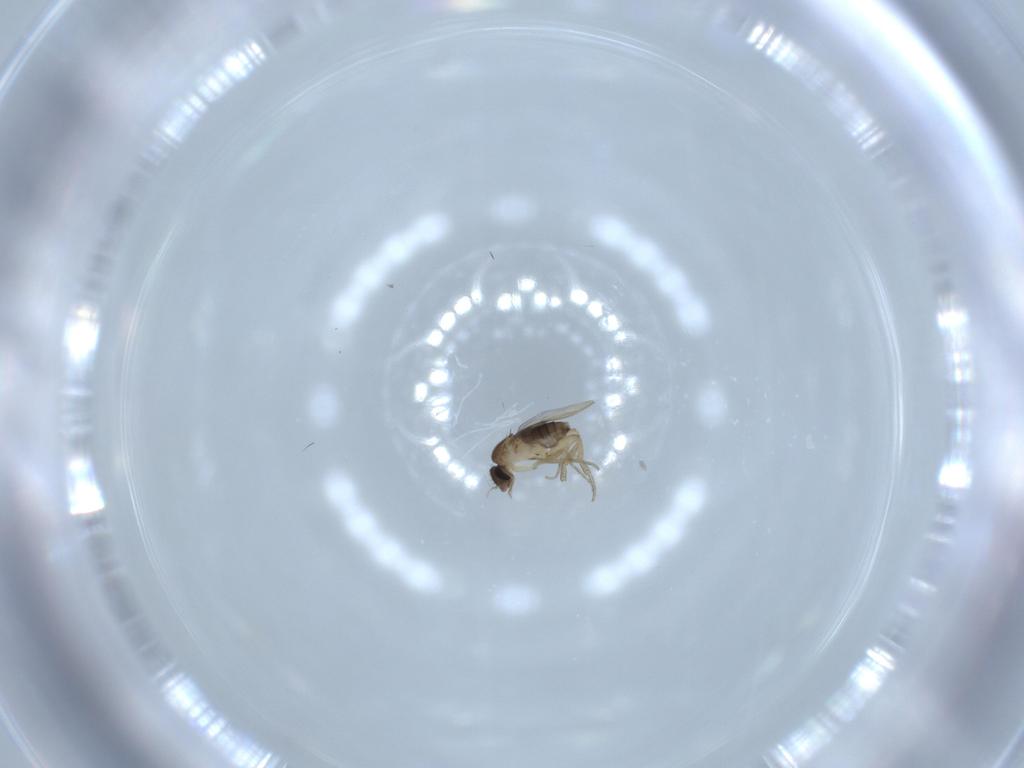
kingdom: Animalia
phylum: Arthropoda
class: Insecta
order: Diptera
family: Phoridae
